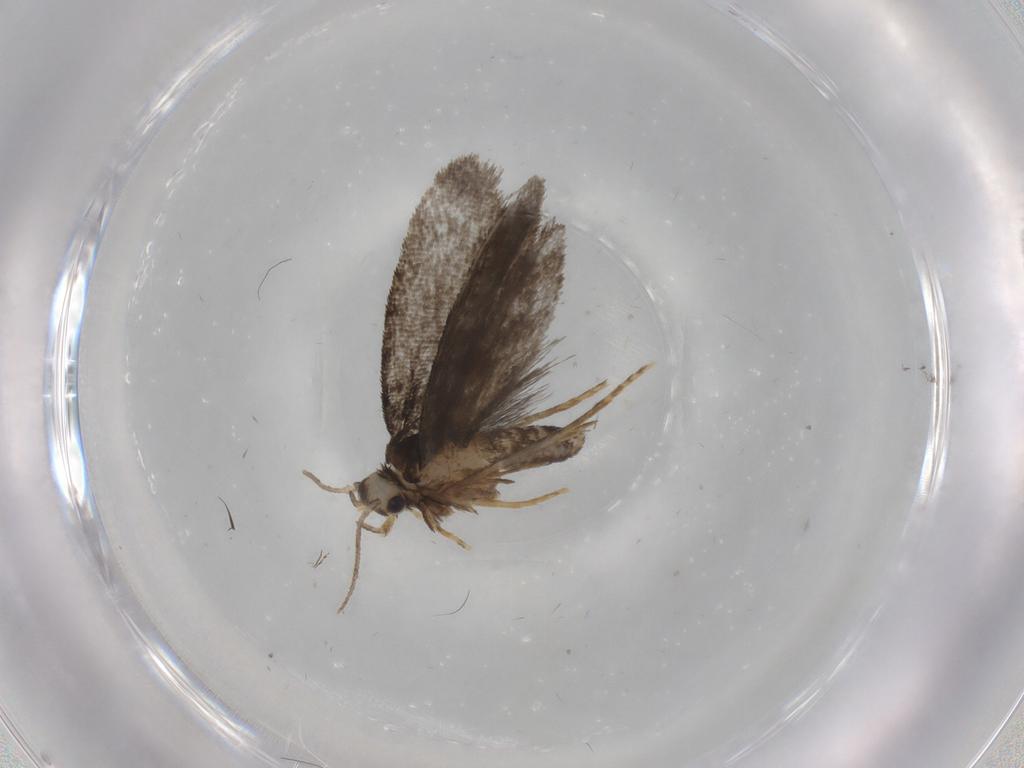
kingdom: Animalia
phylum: Arthropoda
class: Insecta
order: Lepidoptera
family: Psychidae
